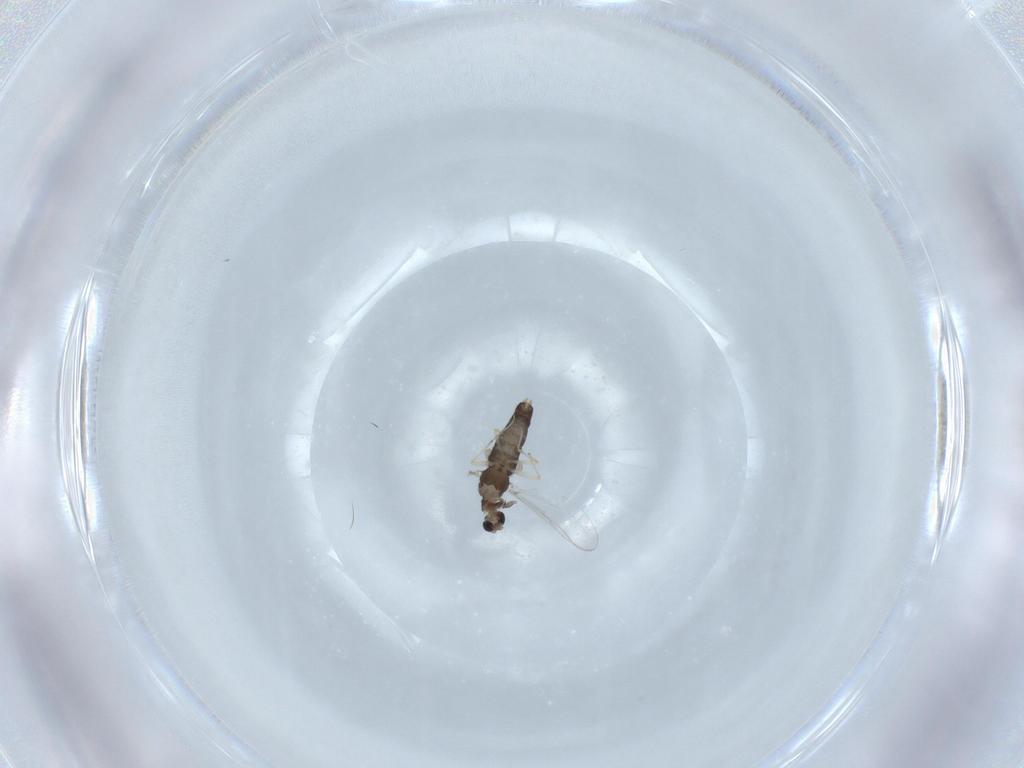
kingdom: Animalia
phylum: Arthropoda
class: Insecta
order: Diptera
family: Chironomidae
